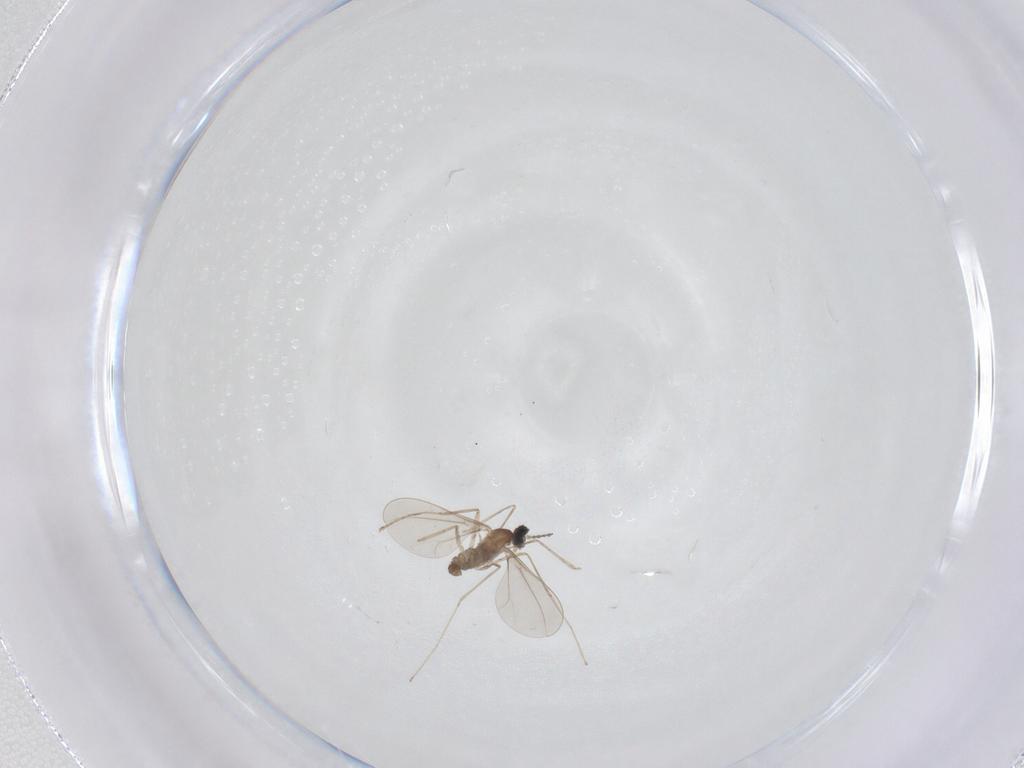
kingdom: Animalia
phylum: Arthropoda
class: Insecta
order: Diptera
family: Cecidomyiidae
